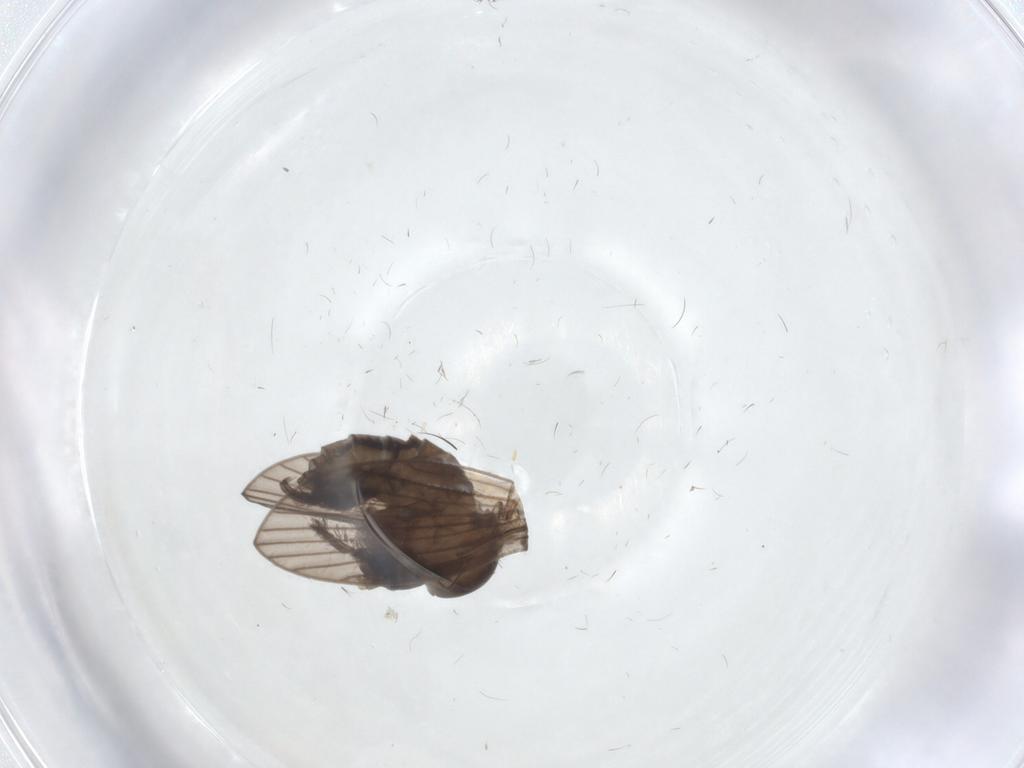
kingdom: Animalia
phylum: Arthropoda
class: Insecta
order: Diptera
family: Psychodidae
